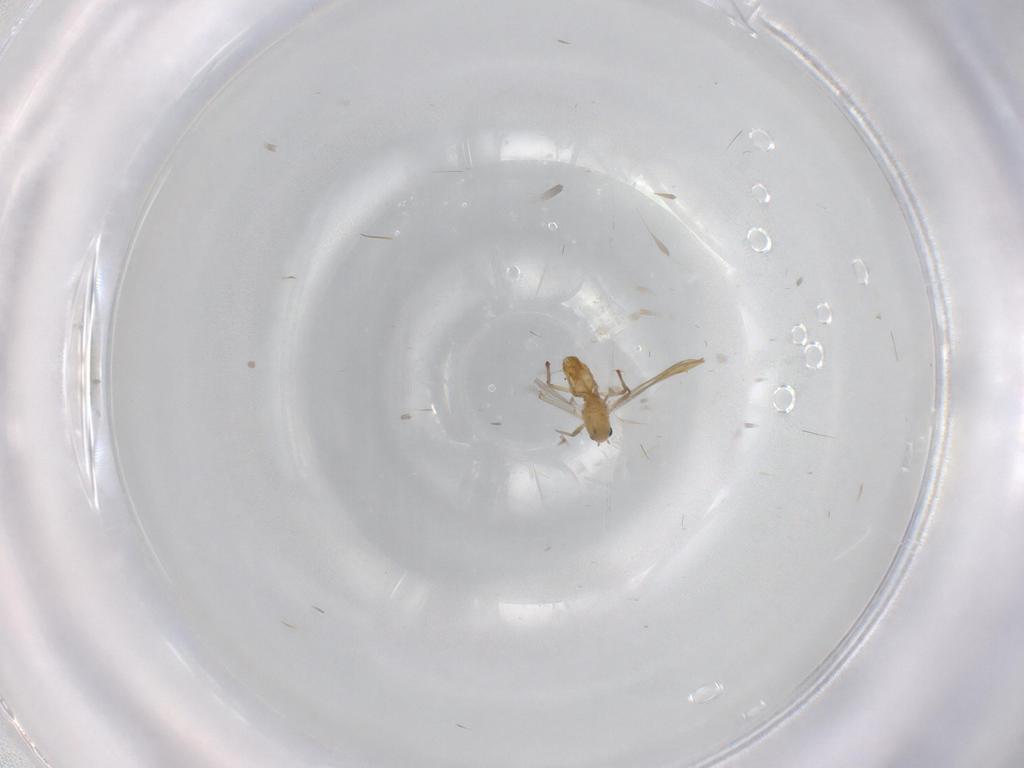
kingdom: Animalia
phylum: Arthropoda
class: Insecta
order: Diptera
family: Chironomidae
